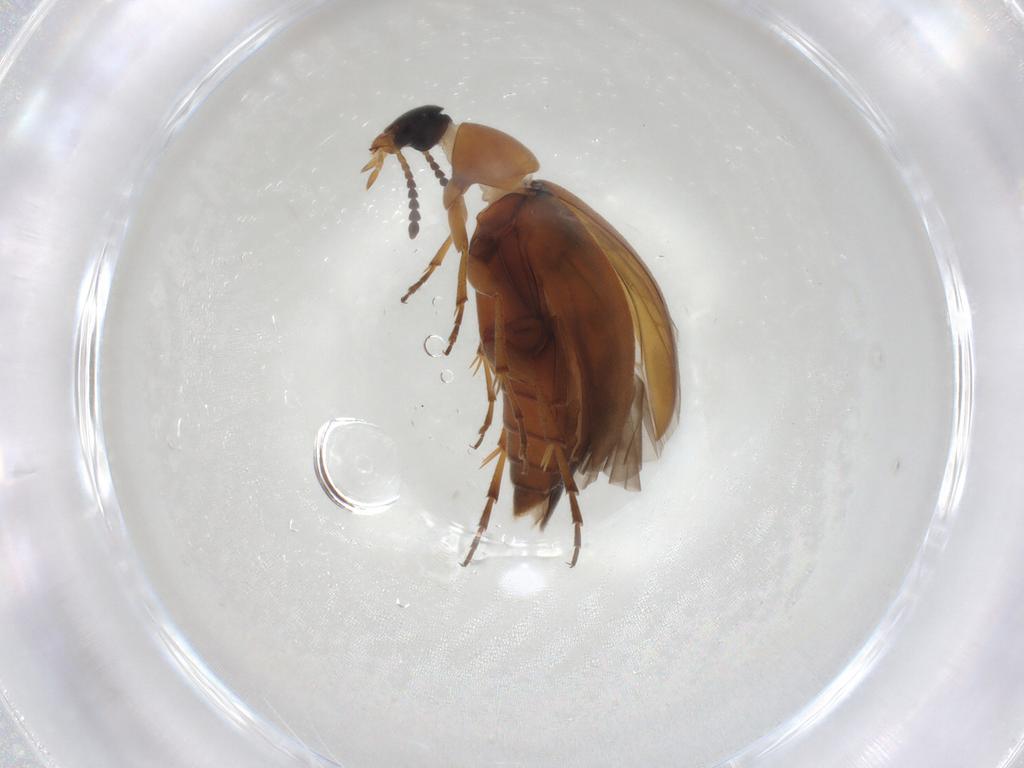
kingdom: Animalia
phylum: Arthropoda
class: Insecta
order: Coleoptera
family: Scraptiidae
